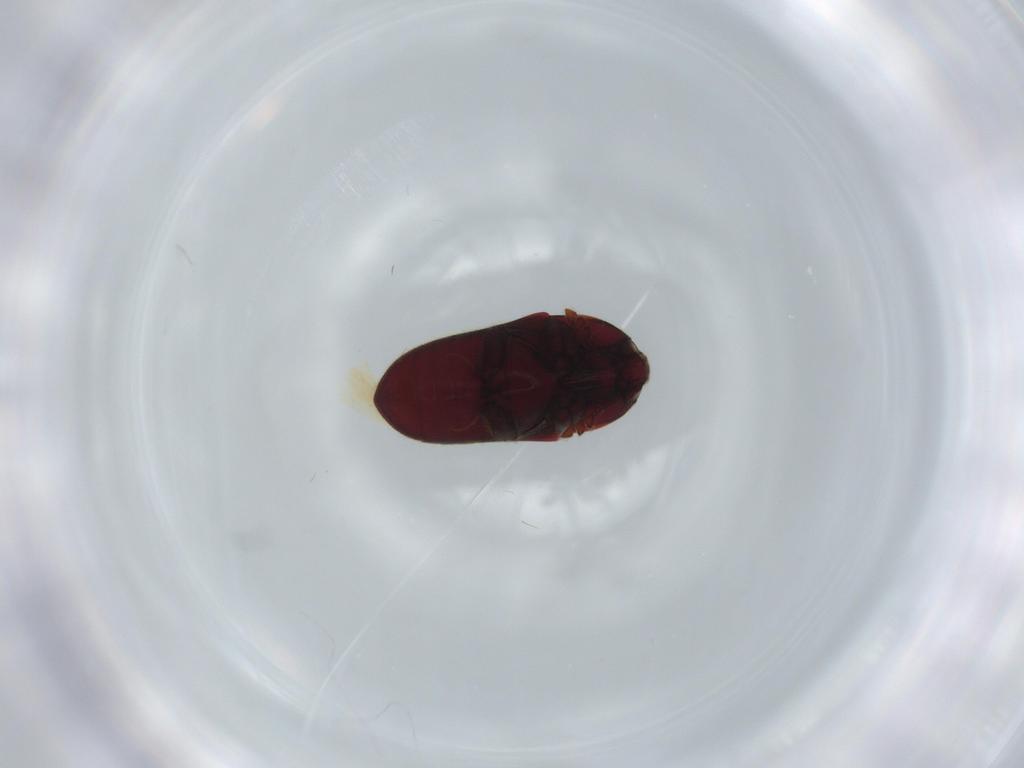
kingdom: Animalia
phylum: Arthropoda
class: Insecta
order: Coleoptera
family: Throscidae
